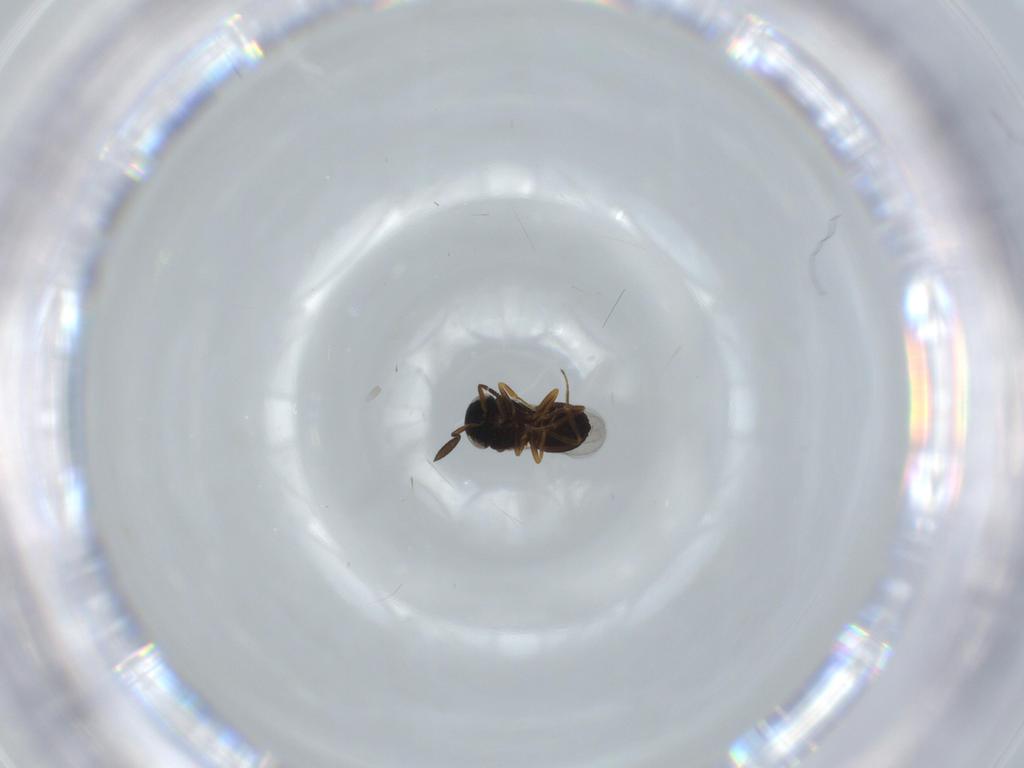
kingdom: Animalia
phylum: Arthropoda
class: Insecta
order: Hymenoptera
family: Scelionidae
